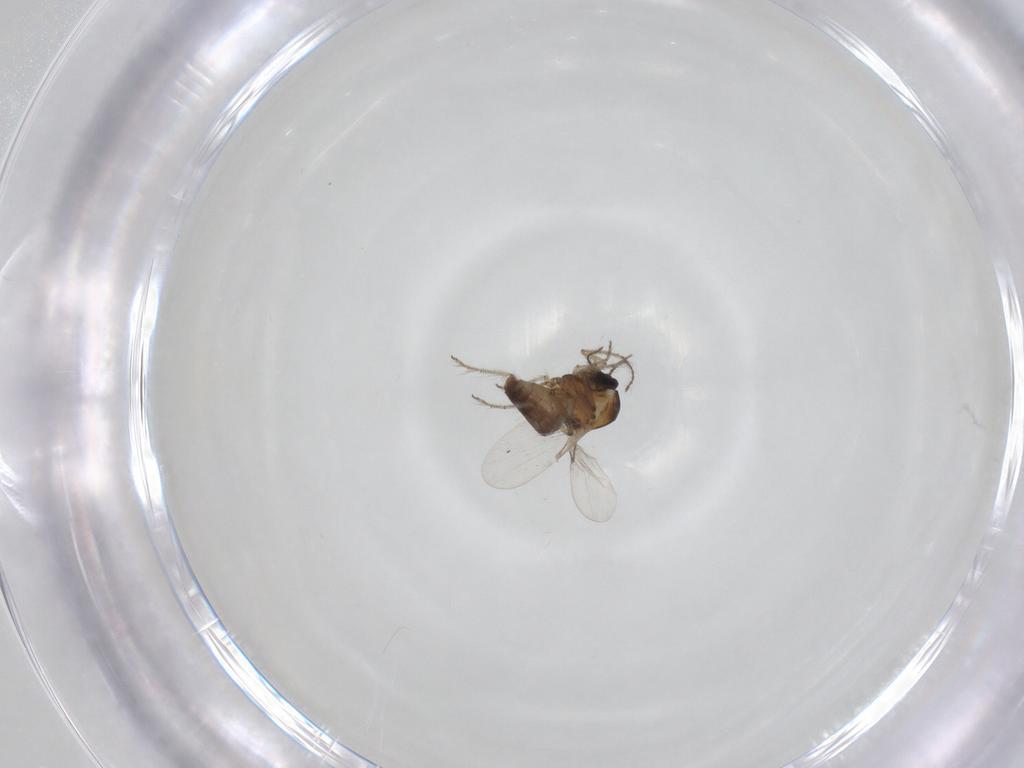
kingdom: Animalia
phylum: Arthropoda
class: Insecta
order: Diptera
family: Ceratopogonidae
